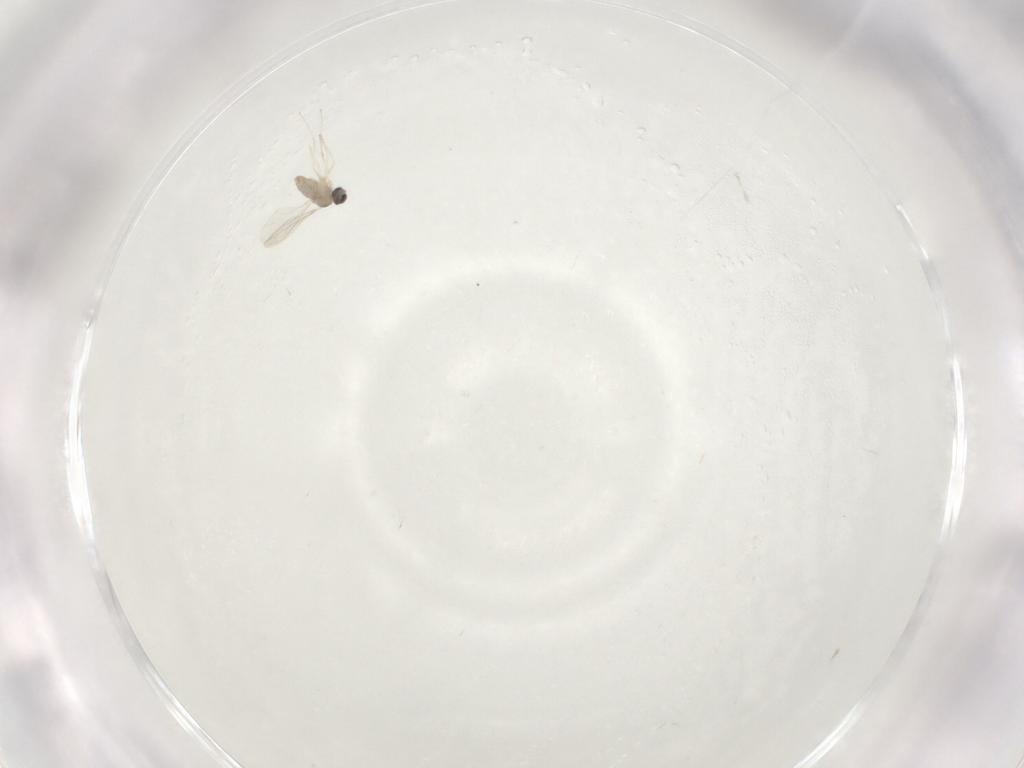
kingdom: Animalia
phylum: Arthropoda
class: Insecta
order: Diptera
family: Cecidomyiidae
